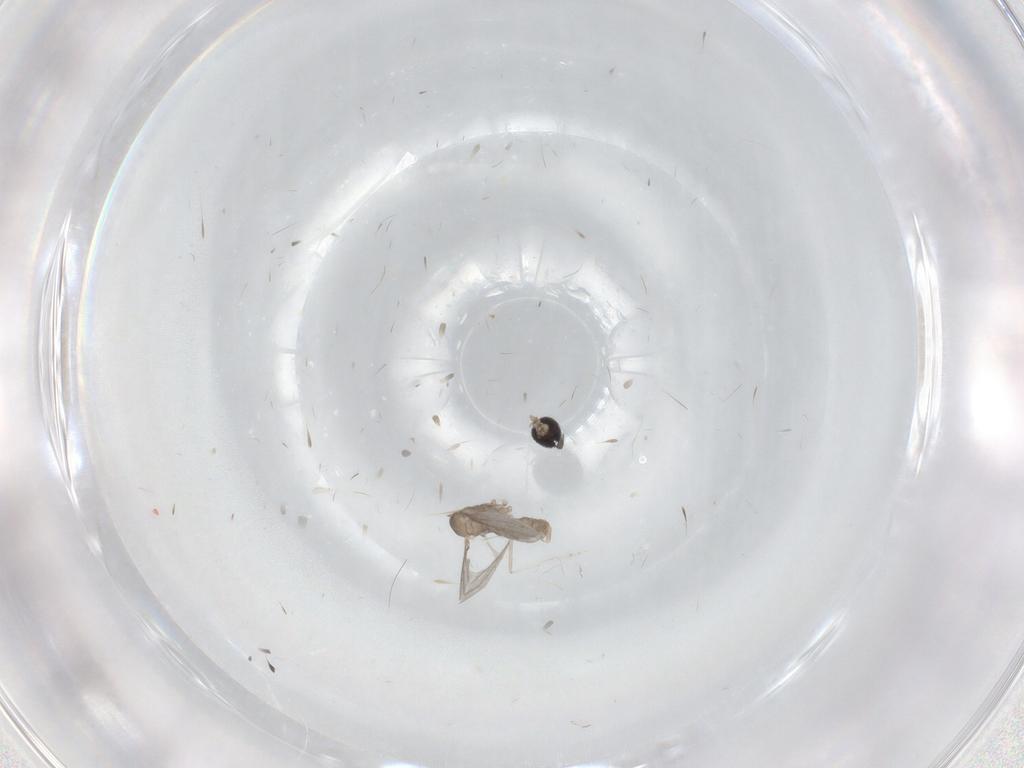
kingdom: Animalia
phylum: Arthropoda
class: Insecta
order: Diptera
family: Cecidomyiidae
